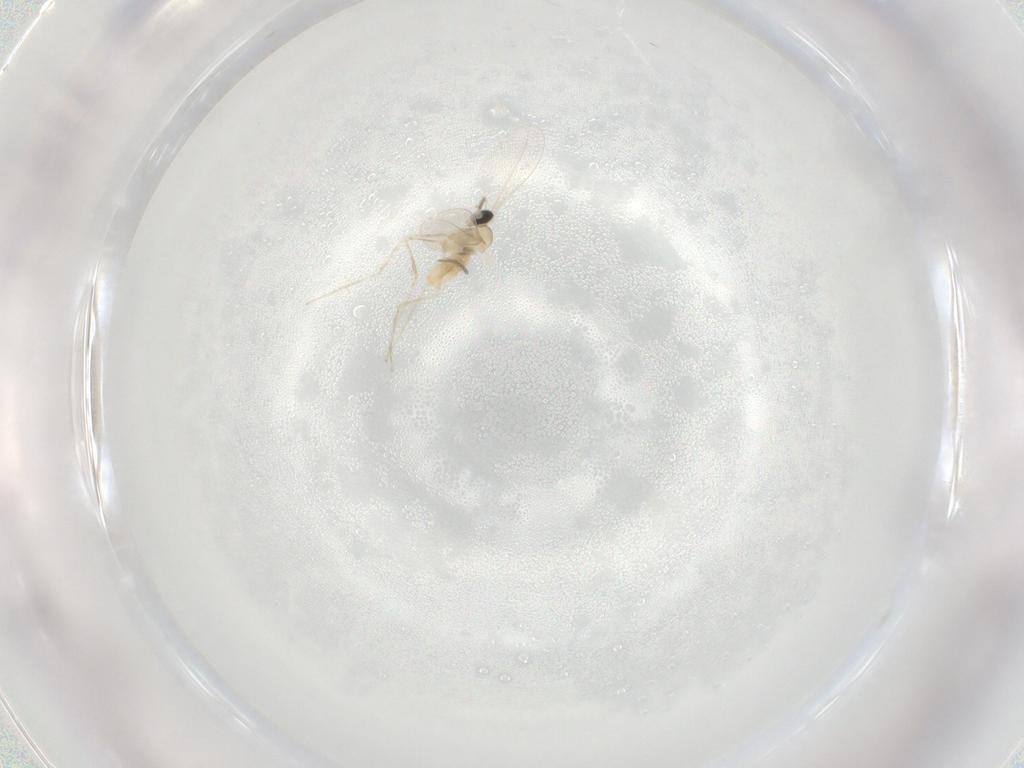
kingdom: Animalia
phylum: Arthropoda
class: Insecta
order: Diptera
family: Cecidomyiidae
